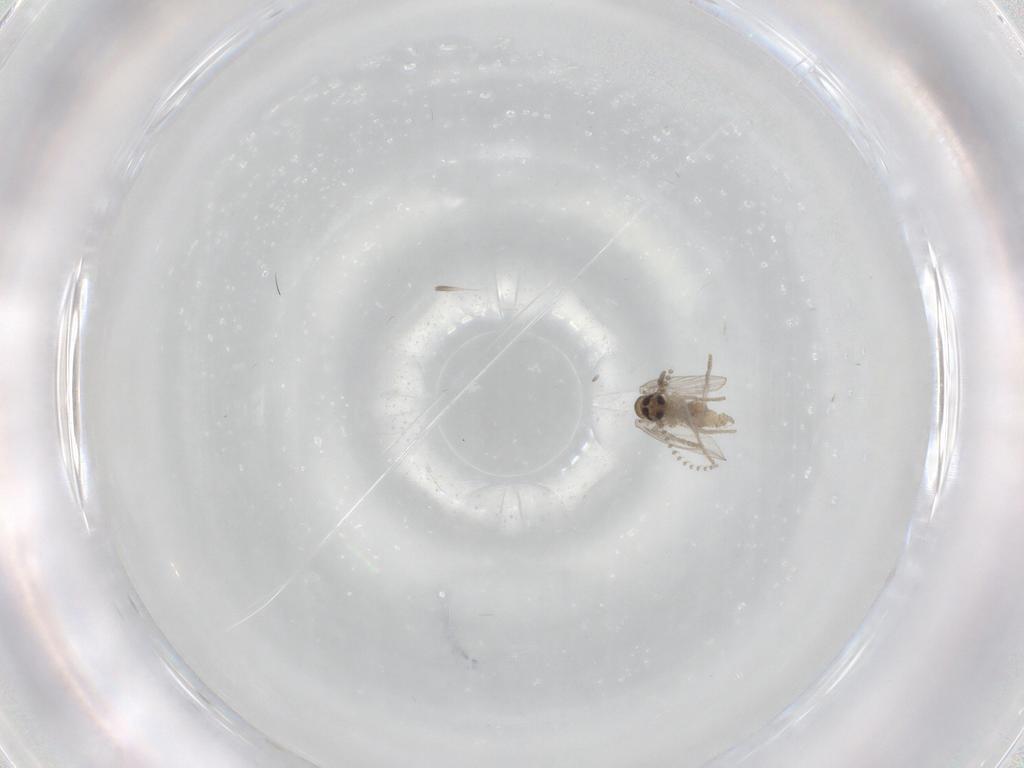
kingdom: Animalia
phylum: Arthropoda
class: Insecta
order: Diptera
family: Psychodidae
